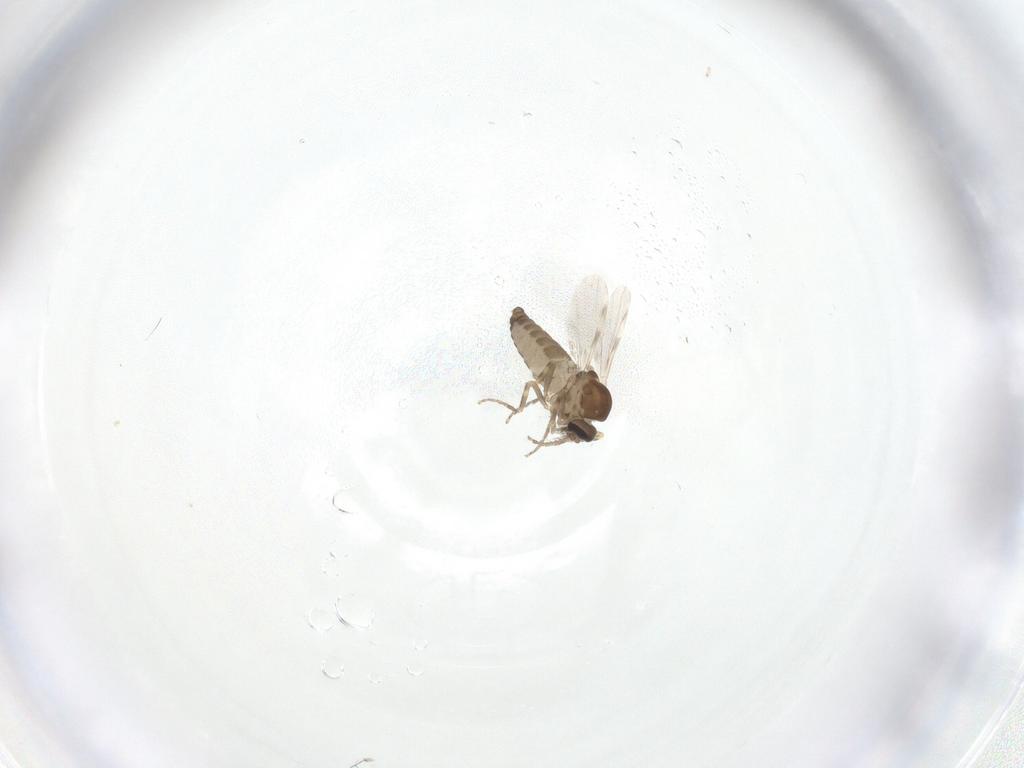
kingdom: Animalia
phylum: Arthropoda
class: Insecta
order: Diptera
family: Ceratopogonidae
